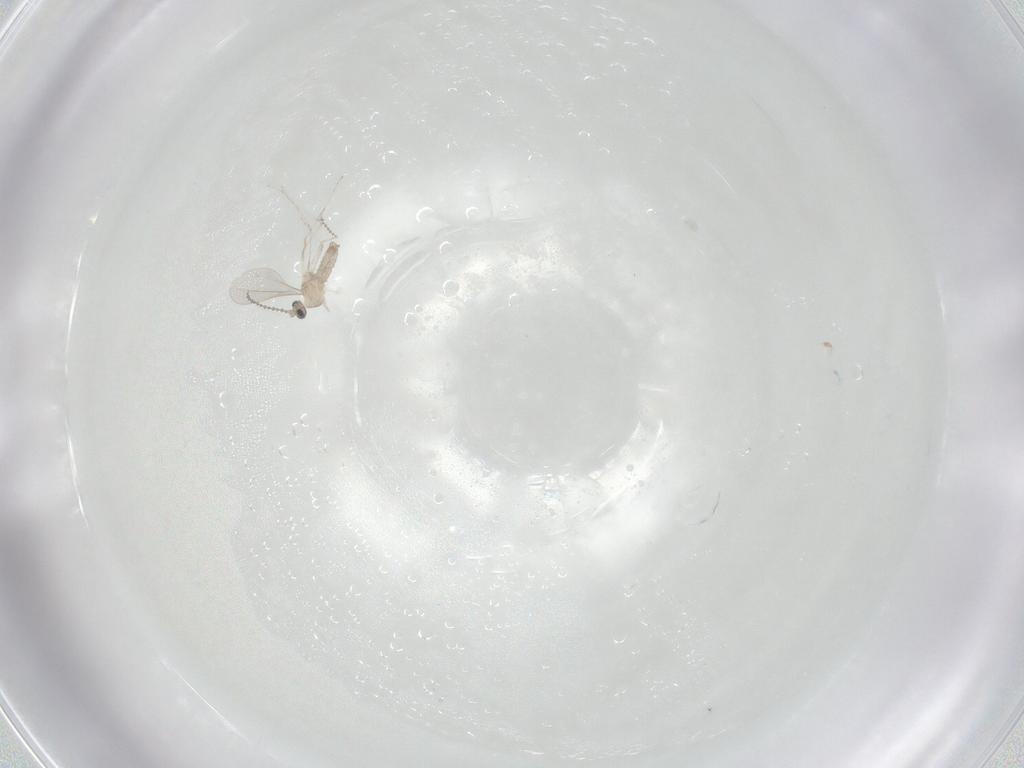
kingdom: Animalia
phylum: Arthropoda
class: Insecta
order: Diptera
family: Cecidomyiidae
